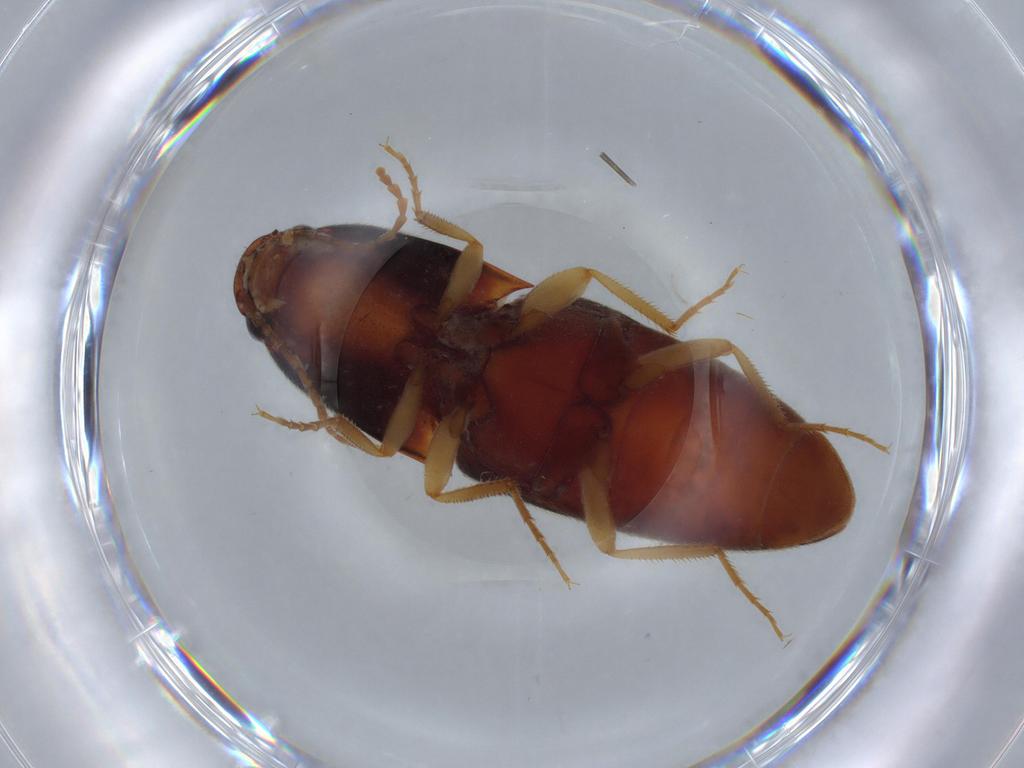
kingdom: Animalia
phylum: Arthropoda
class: Insecta
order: Coleoptera
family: Elateridae
